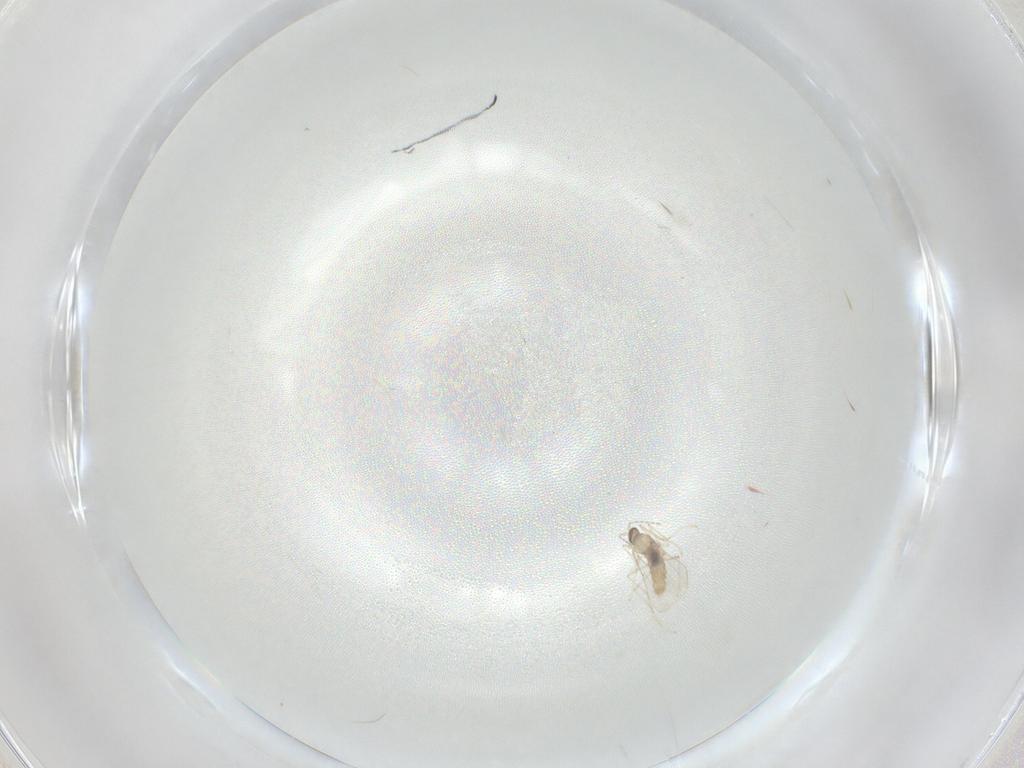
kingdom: Animalia
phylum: Arthropoda
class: Insecta
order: Diptera
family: Cecidomyiidae
